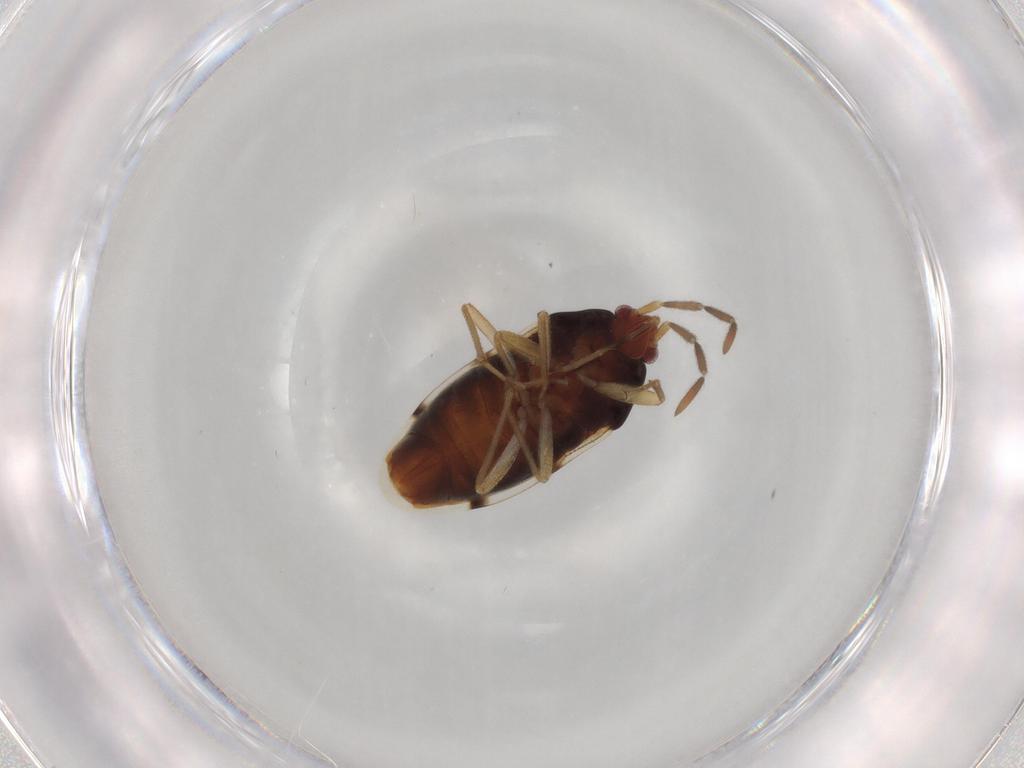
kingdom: Animalia
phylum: Arthropoda
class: Insecta
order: Hemiptera
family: Rhyparochromidae
